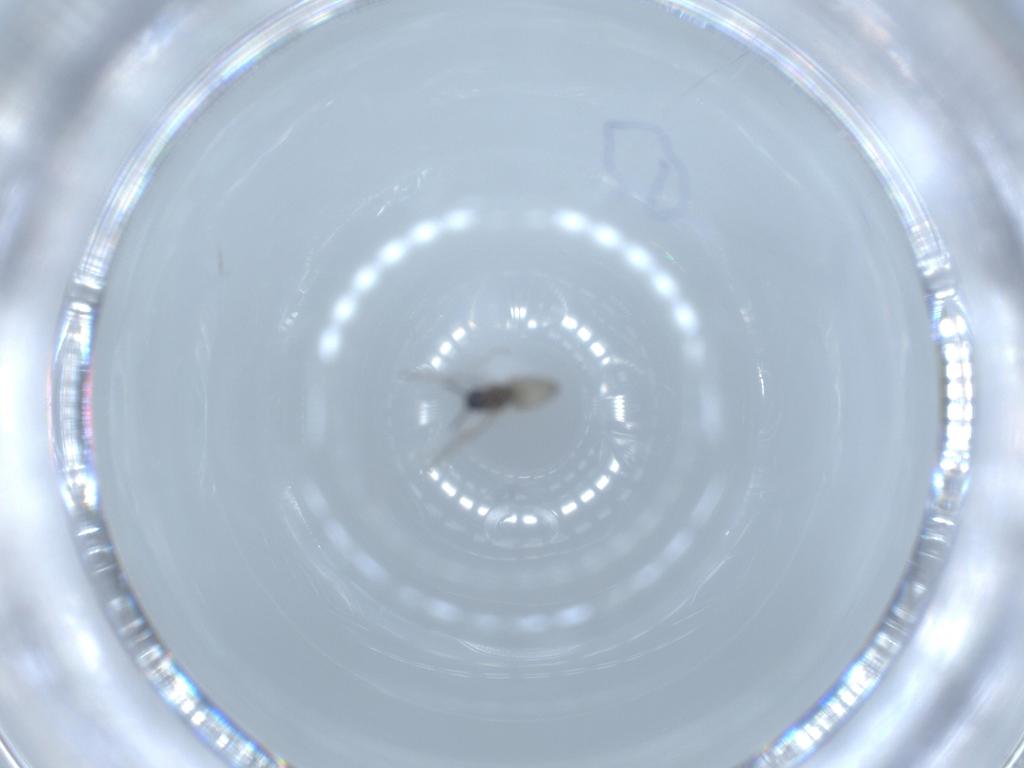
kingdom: Animalia
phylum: Arthropoda
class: Insecta
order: Diptera
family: Cecidomyiidae
